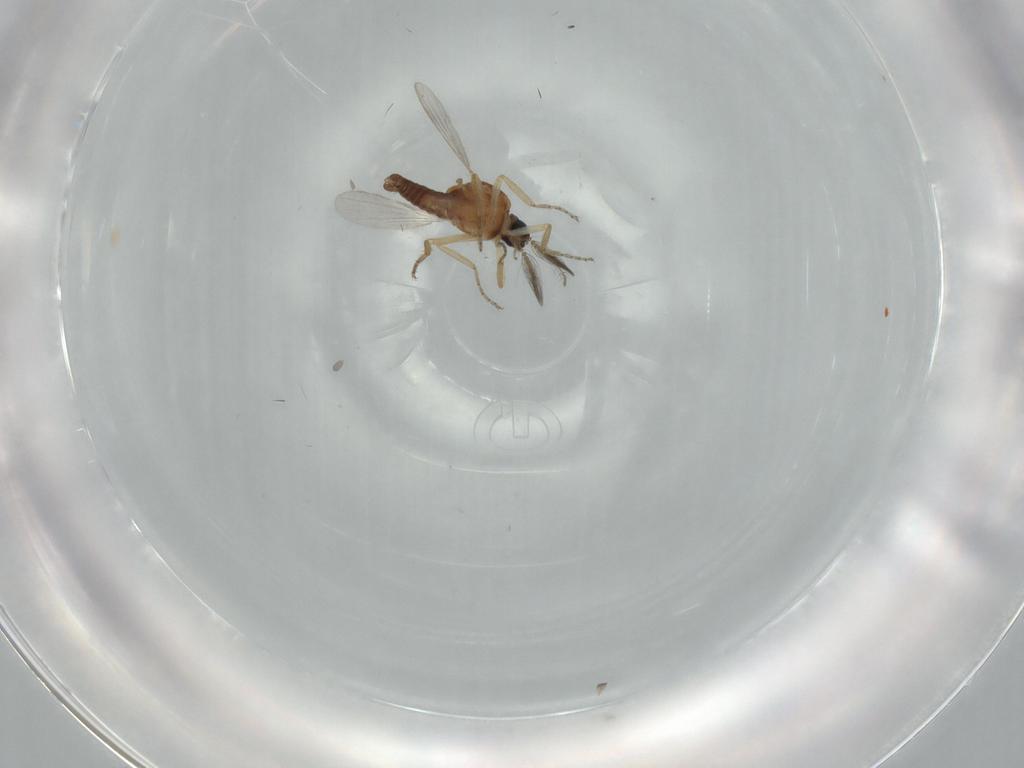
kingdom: Animalia
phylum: Arthropoda
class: Insecta
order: Diptera
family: Ceratopogonidae
